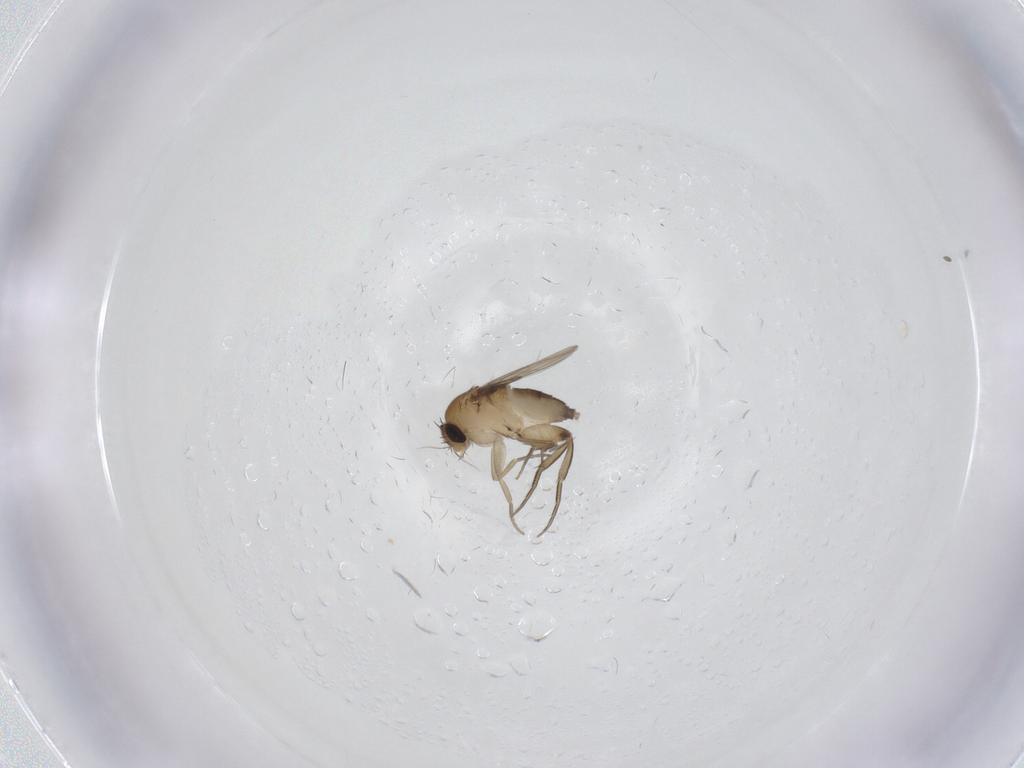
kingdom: Animalia
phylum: Arthropoda
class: Insecta
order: Diptera
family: Phoridae
